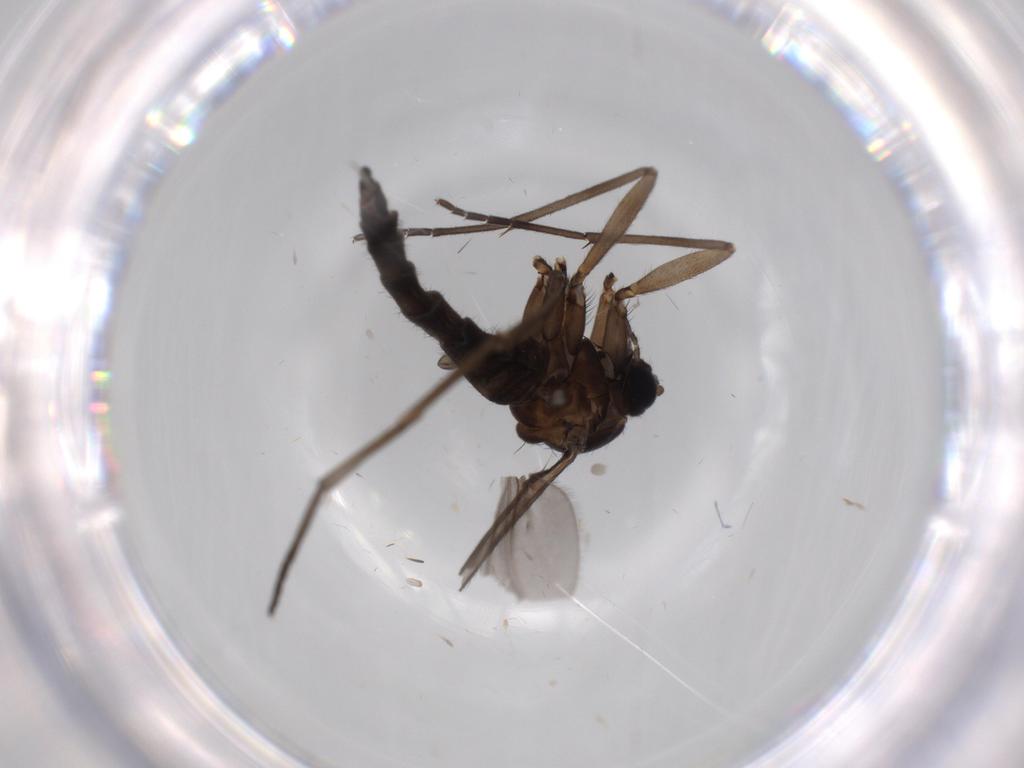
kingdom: Animalia
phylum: Arthropoda
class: Insecta
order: Diptera
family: Sciaridae
